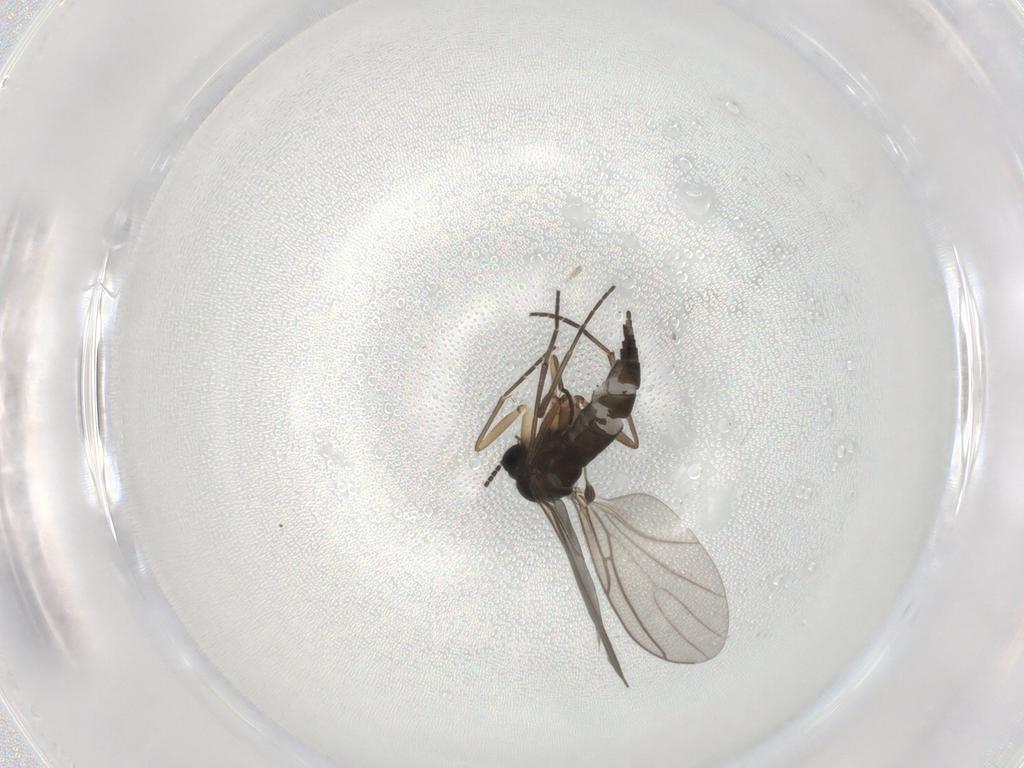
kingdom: Animalia
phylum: Arthropoda
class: Insecta
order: Diptera
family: Sciaridae
